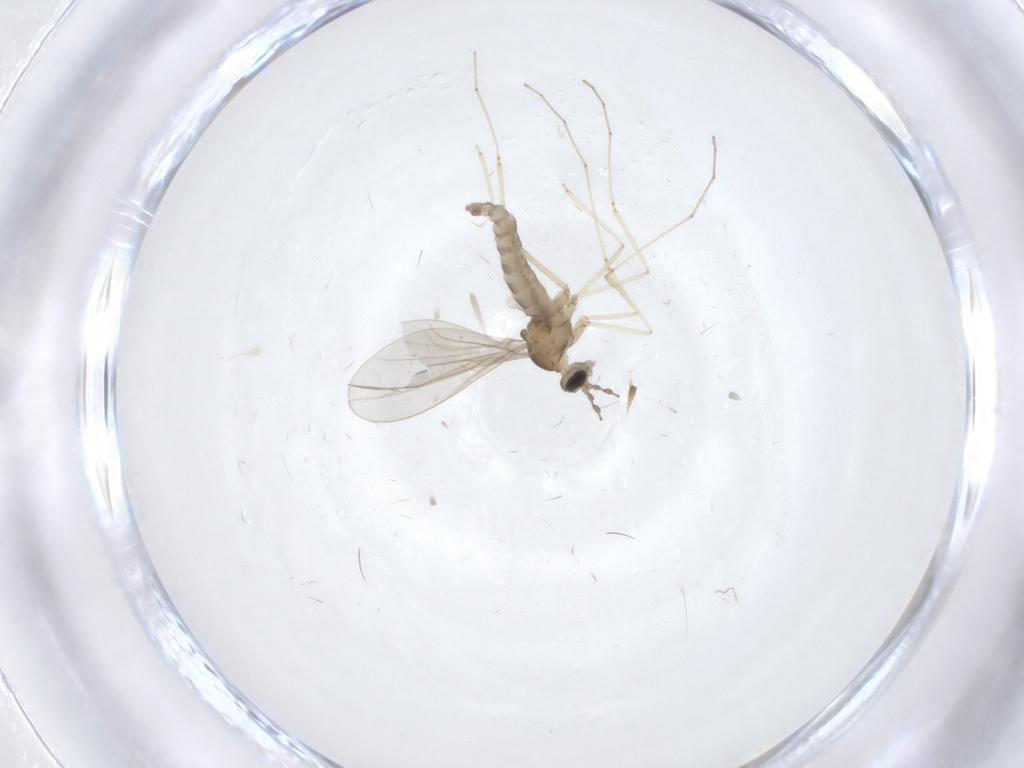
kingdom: Animalia
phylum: Arthropoda
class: Insecta
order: Diptera
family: Cecidomyiidae
